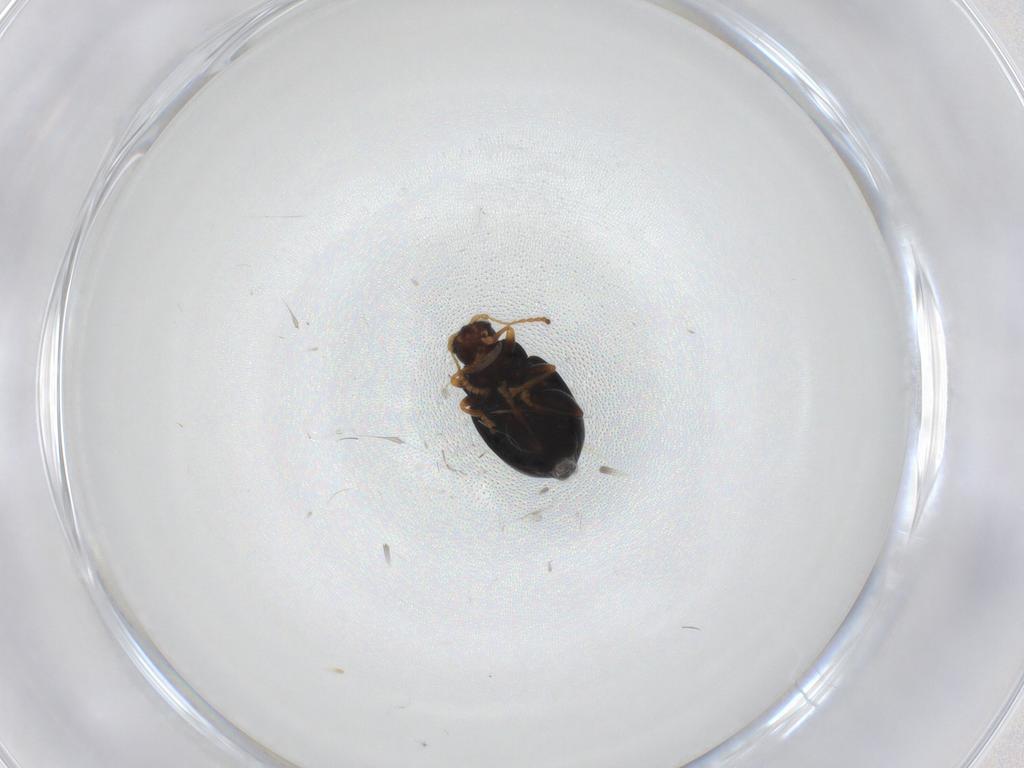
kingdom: Animalia
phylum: Arthropoda
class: Insecta
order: Coleoptera
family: Chrysomelidae
